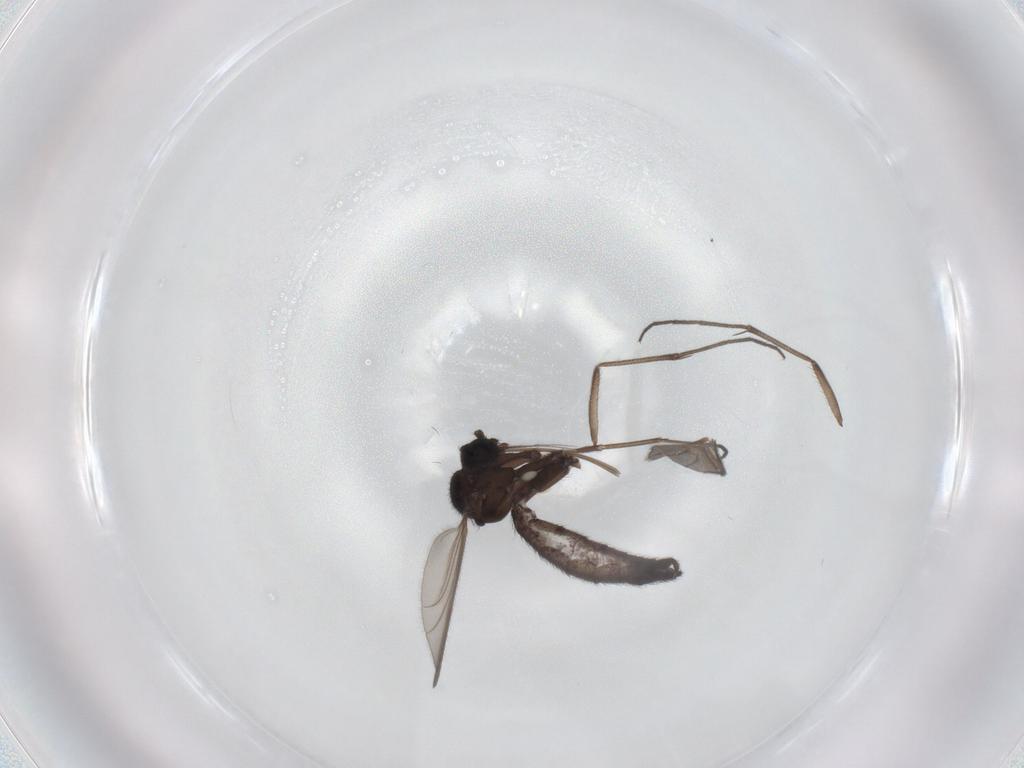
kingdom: Animalia
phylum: Arthropoda
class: Insecta
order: Diptera
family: Keroplatidae
